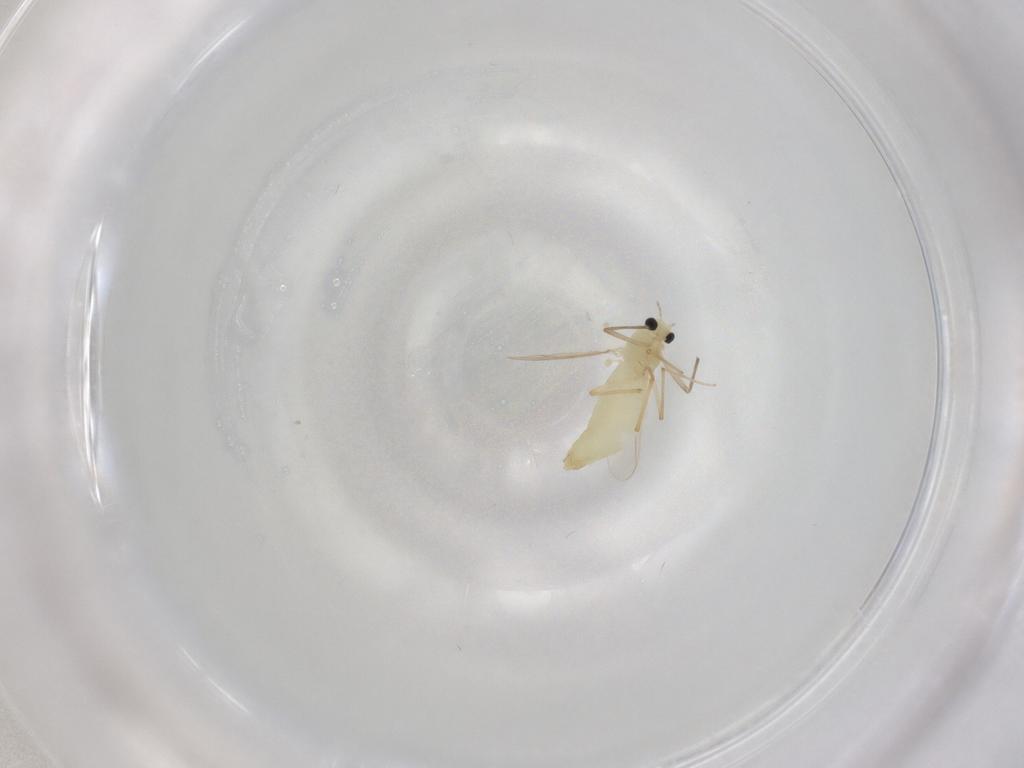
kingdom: Animalia
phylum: Arthropoda
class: Insecta
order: Diptera
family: Chironomidae
